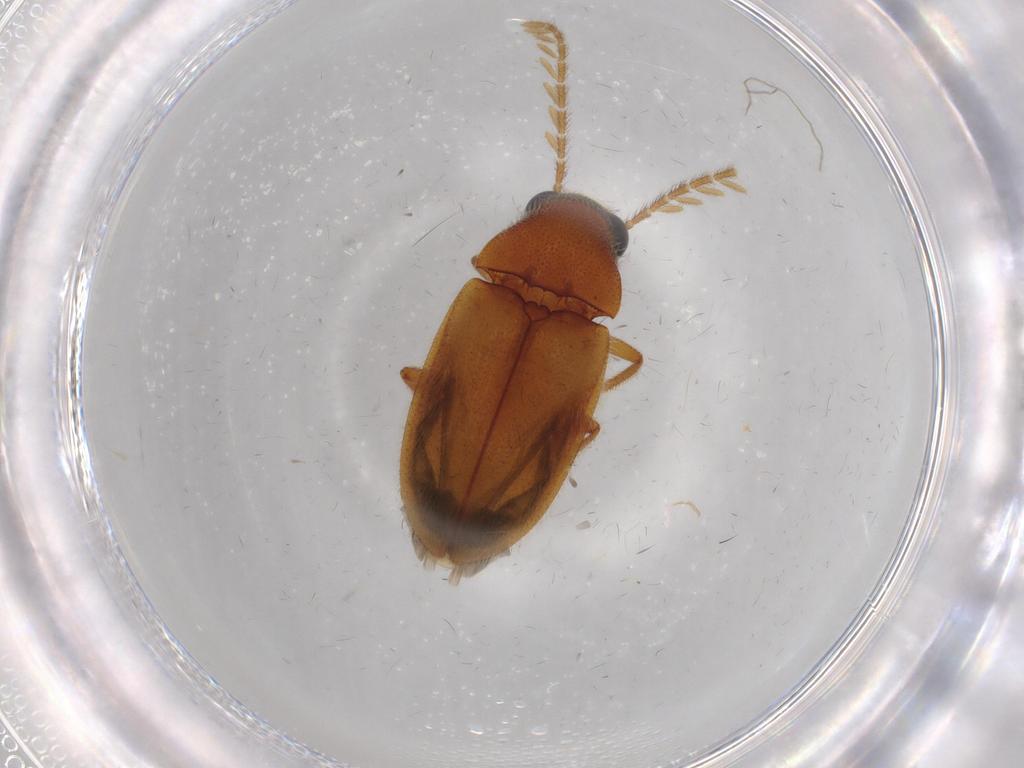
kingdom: Animalia
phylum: Arthropoda
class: Insecta
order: Coleoptera
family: Ptilodactylidae
